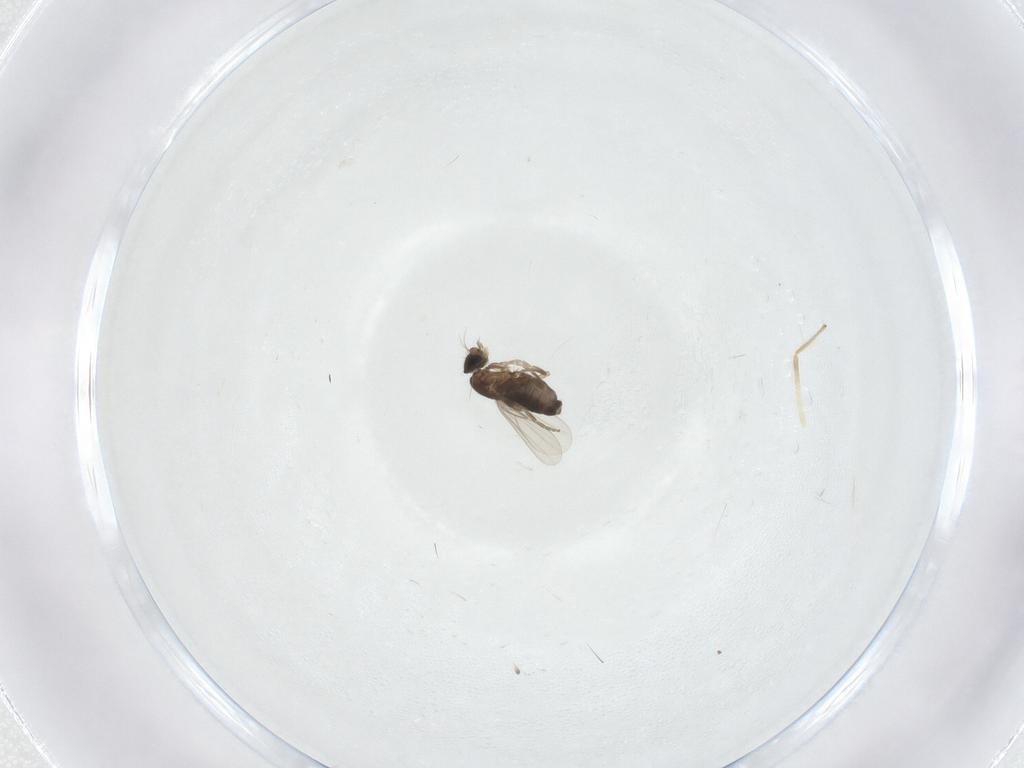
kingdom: Animalia
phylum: Arthropoda
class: Insecta
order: Diptera
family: Phoridae
